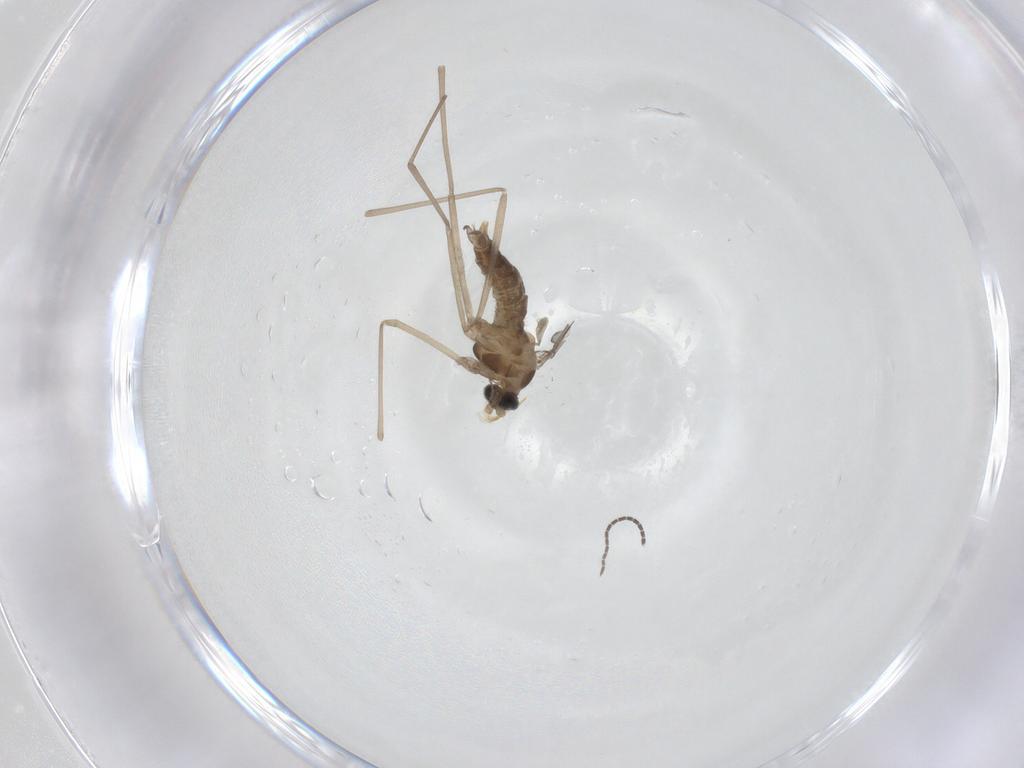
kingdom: Animalia
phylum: Arthropoda
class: Insecta
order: Diptera
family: Cecidomyiidae
